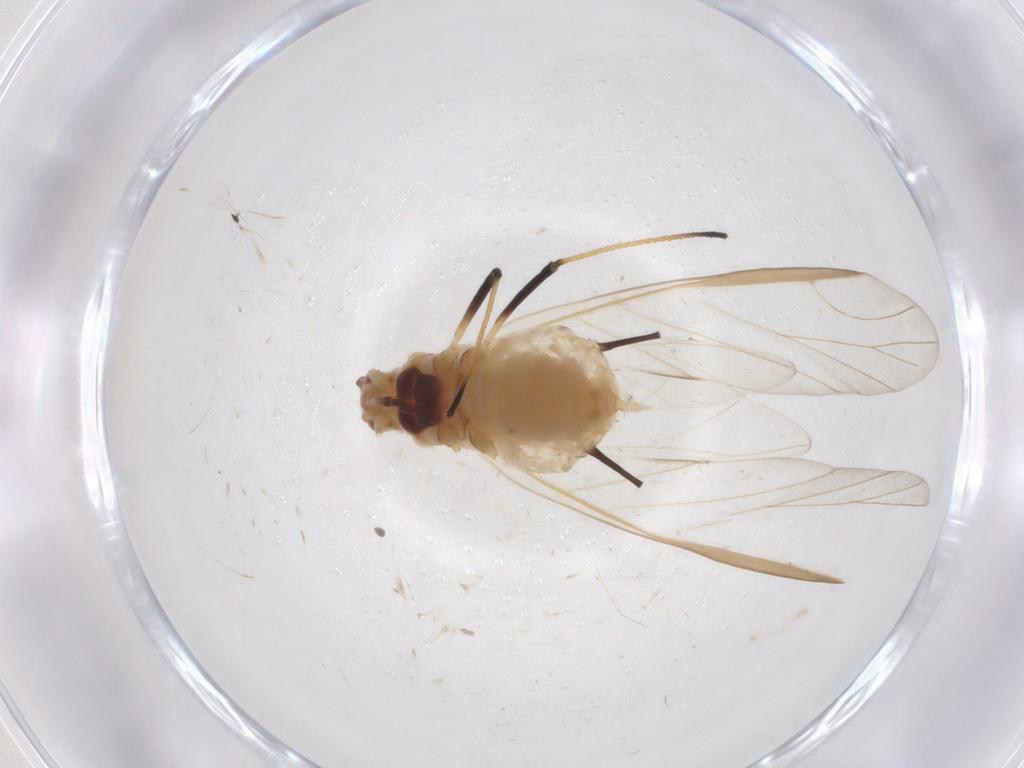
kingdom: Animalia
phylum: Arthropoda
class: Insecta
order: Hemiptera
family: Aphididae
